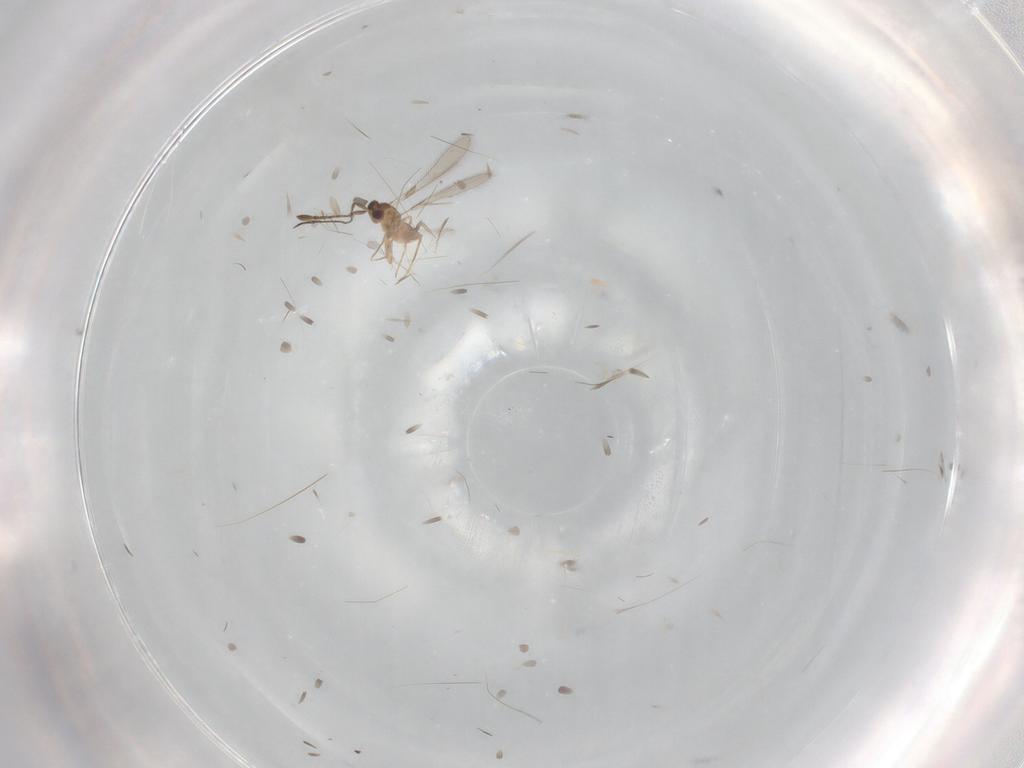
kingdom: Animalia
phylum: Arthropoda
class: Insecta
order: Hymenoptera
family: Mymaridae
